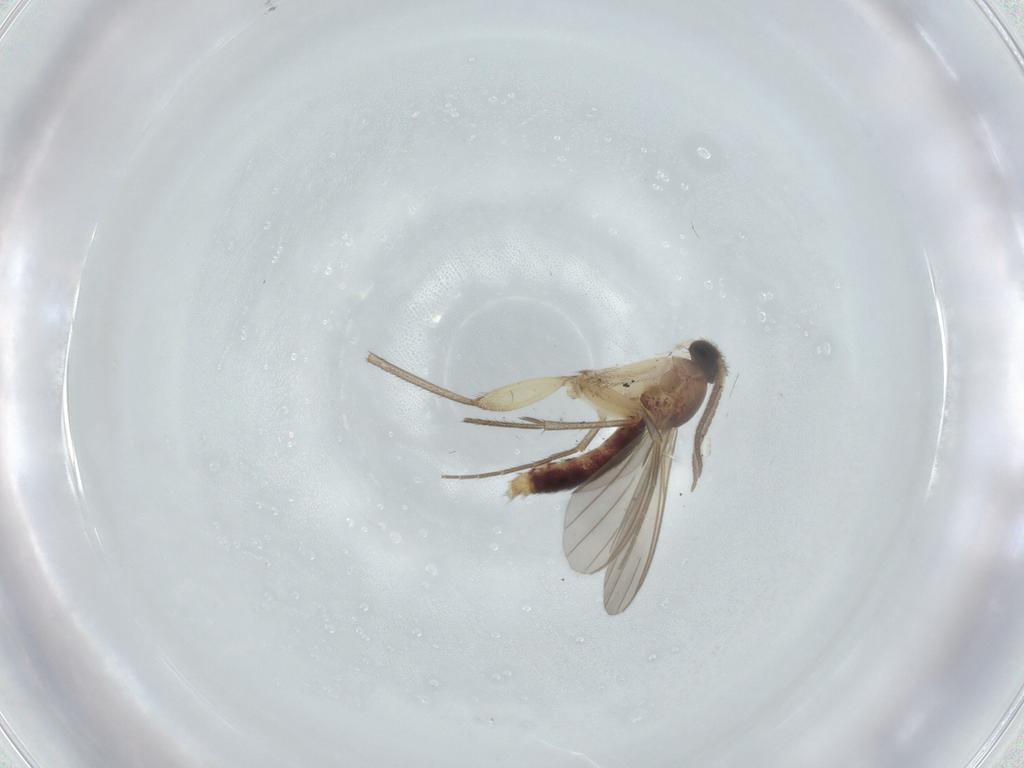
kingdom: Animalia
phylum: Arthropoda
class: Insecta
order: Diptera
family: Mycetophilidae
